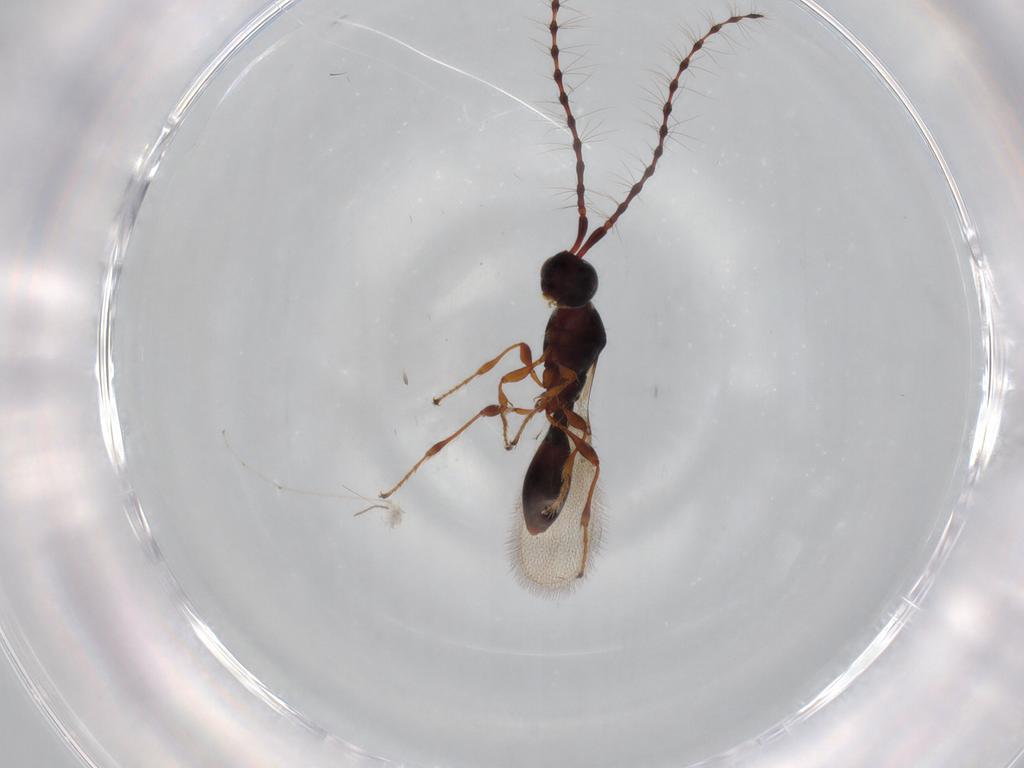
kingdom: Animalia
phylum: Arthropoda
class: Insecta
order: Hymenoptera
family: Diapriidae
